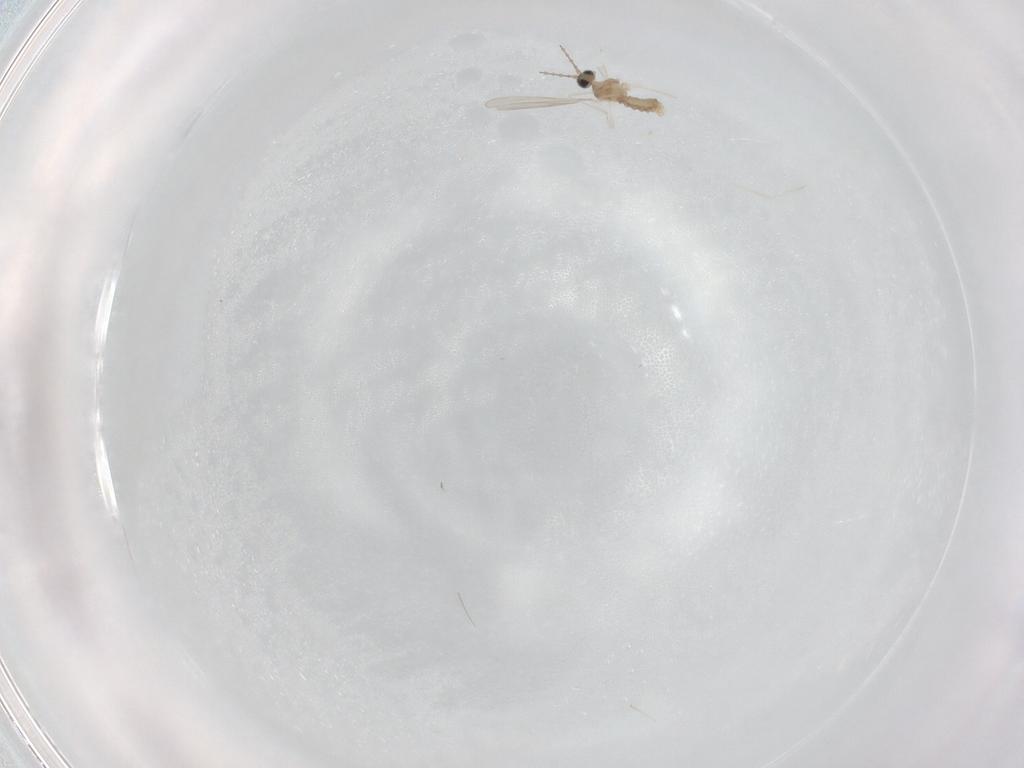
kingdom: Animalia
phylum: Arthropoda
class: Insecta
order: Diptera
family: Cecidomyiidae
